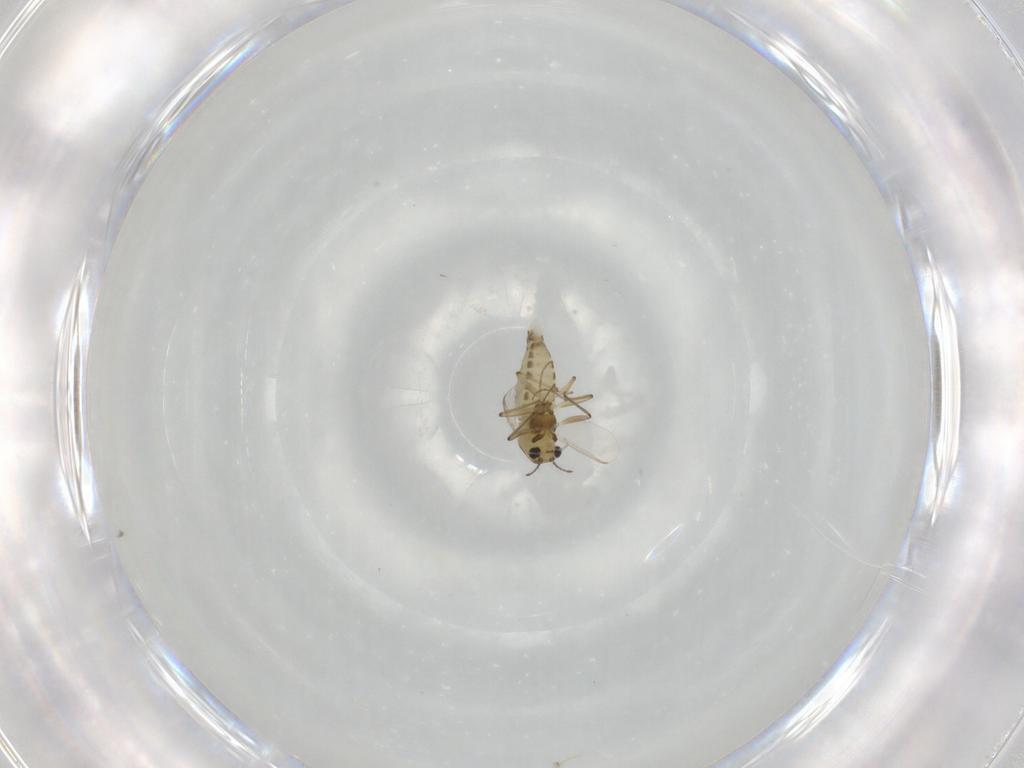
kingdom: Animalia
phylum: Arthropoda
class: Insecta
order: Diptera
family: Chironomidae
